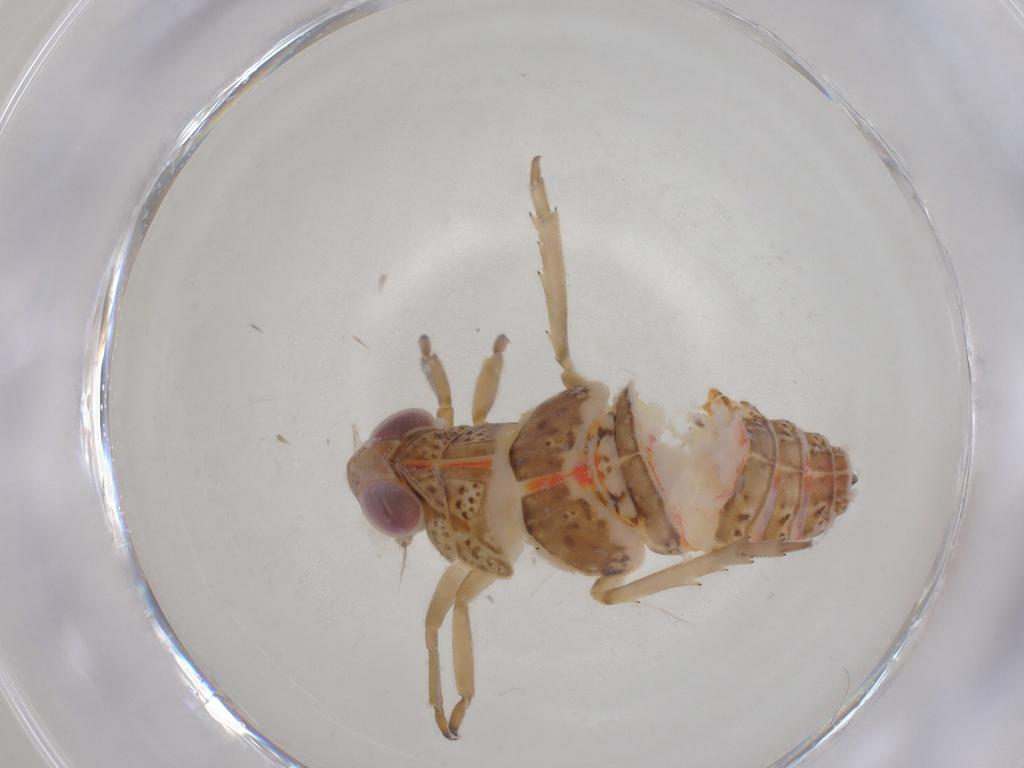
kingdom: Animalia
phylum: Arthropoda
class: Insecta
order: Hemiptera
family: Issidae
